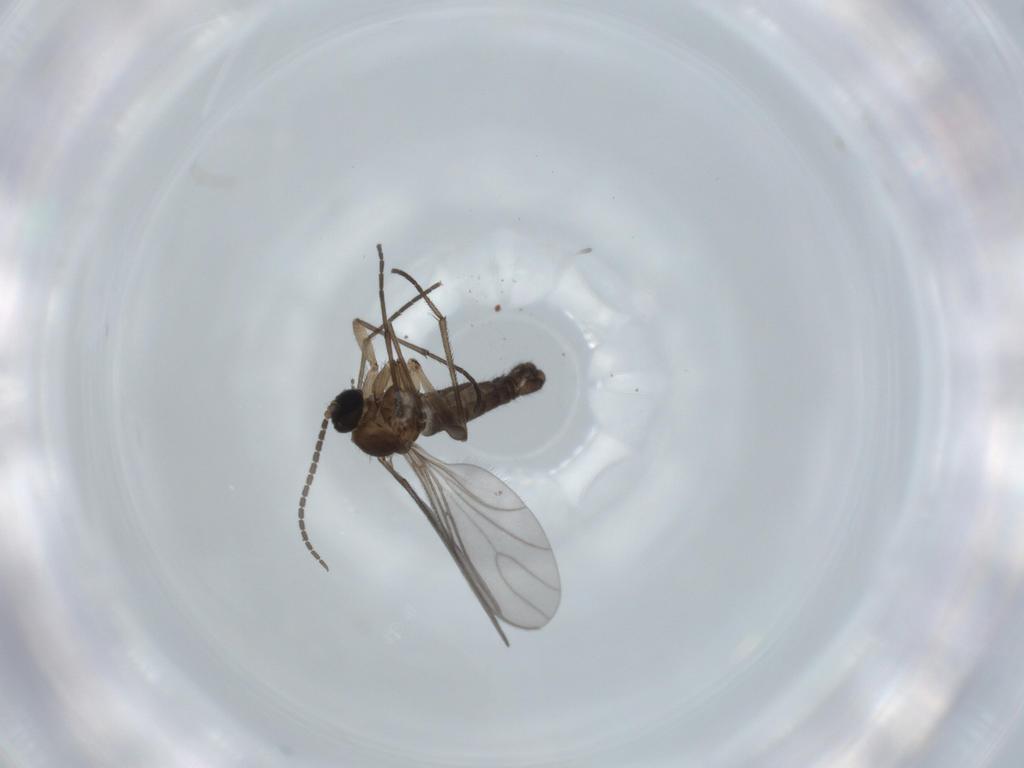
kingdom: Animalia
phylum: Arthropoda
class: Insecta
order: Diptera
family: Sciaridae
